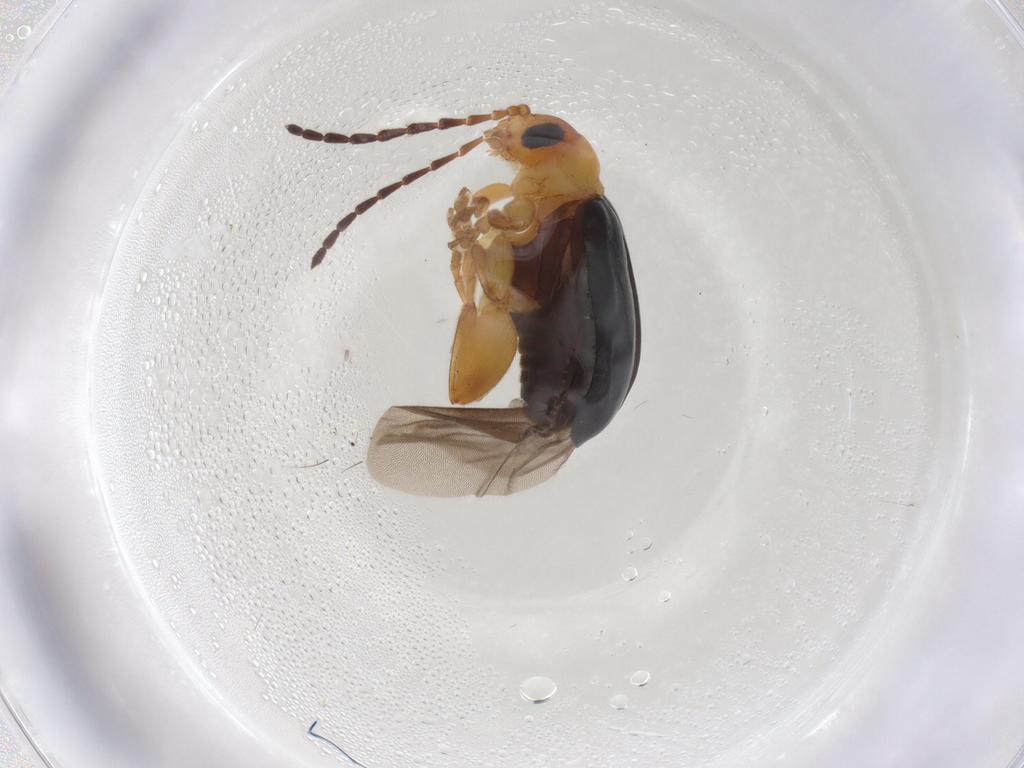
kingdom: Animalia
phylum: Arthropoda
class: Insecta
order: Coleoptera
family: Chrysomelidae
